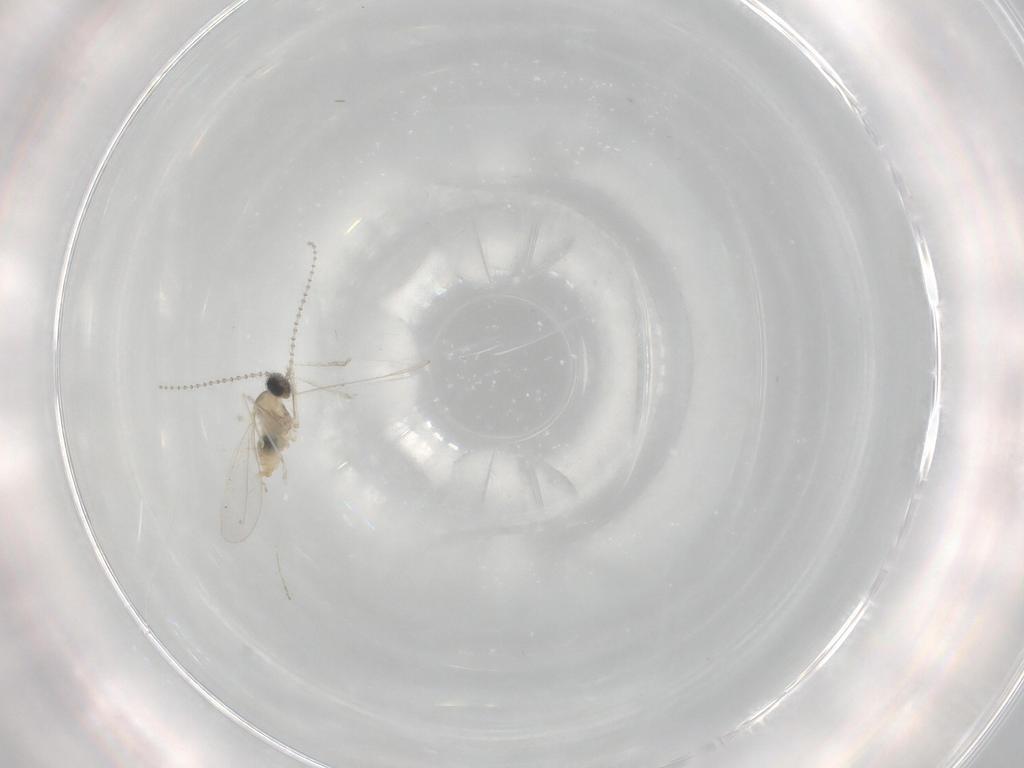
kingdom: Animalia
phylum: Arthropoda
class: Insecta
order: Diptera
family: Cecidomyiidae
